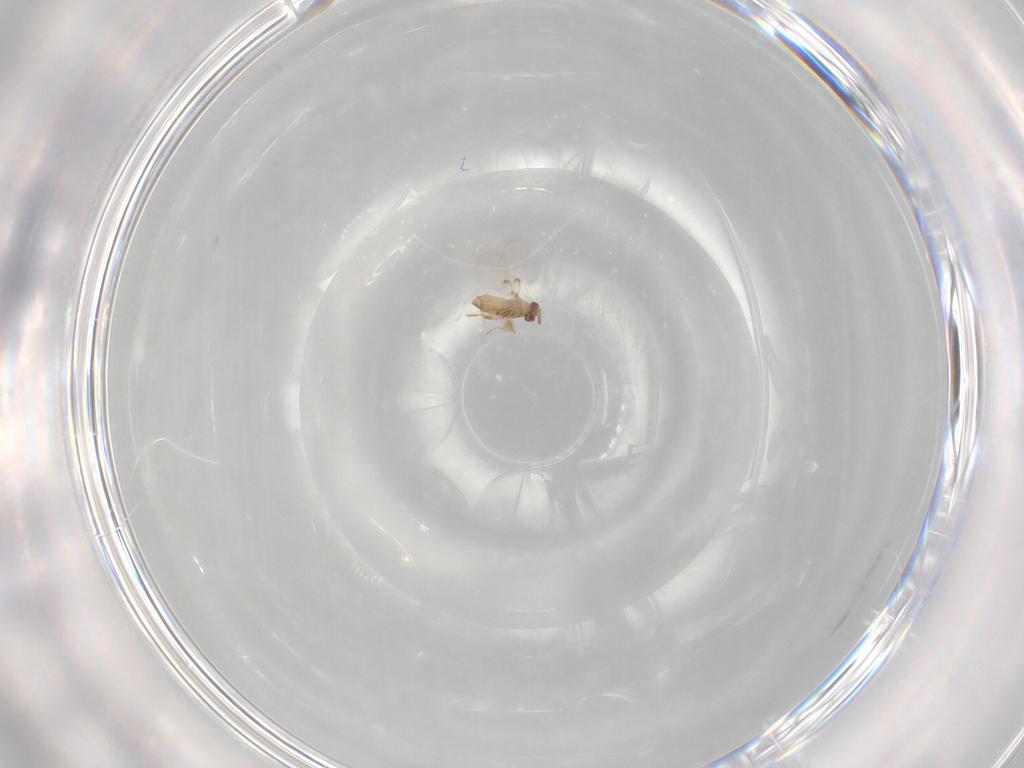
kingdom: Animalia
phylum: Arthropoda
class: Insecta
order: Hymenoptera
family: Trichogrammatidae
